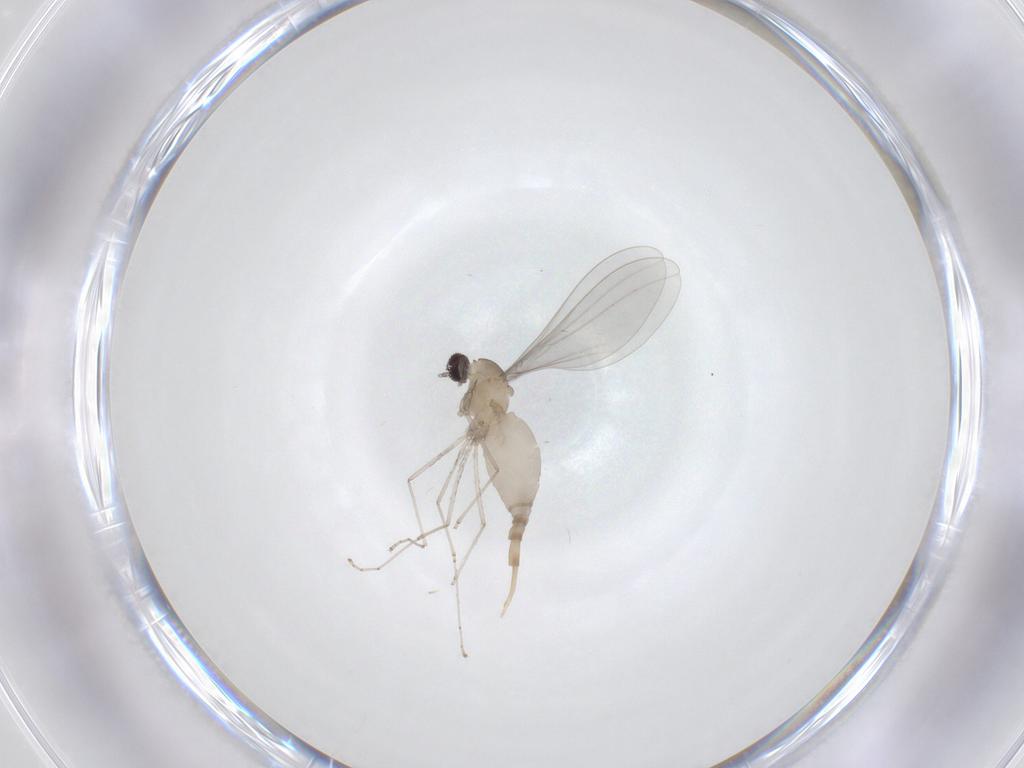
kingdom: Animalia
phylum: Arthropoda
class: Insecta
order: Diptera
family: Cecidomyiidae
